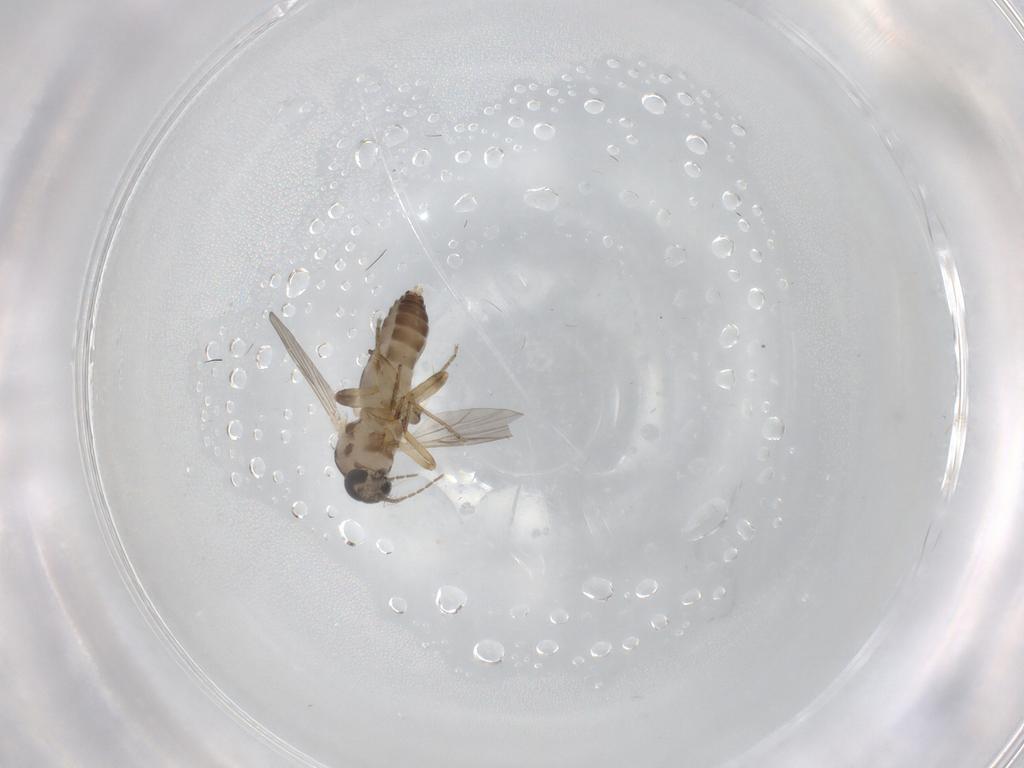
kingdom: Animalia
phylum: Arthropoda
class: Insecta
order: Diptera
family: Ceratopogonidae
